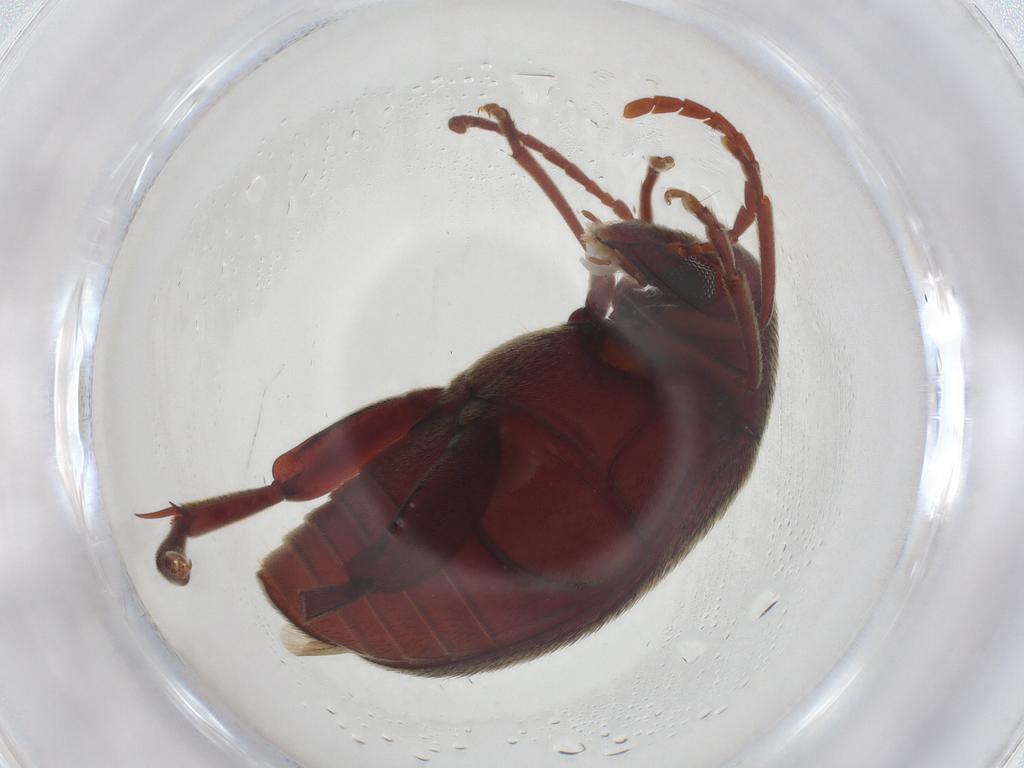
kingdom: Animalia
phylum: Arthropoda
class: Insecta
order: Coleoptera
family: Chrysomelidae
